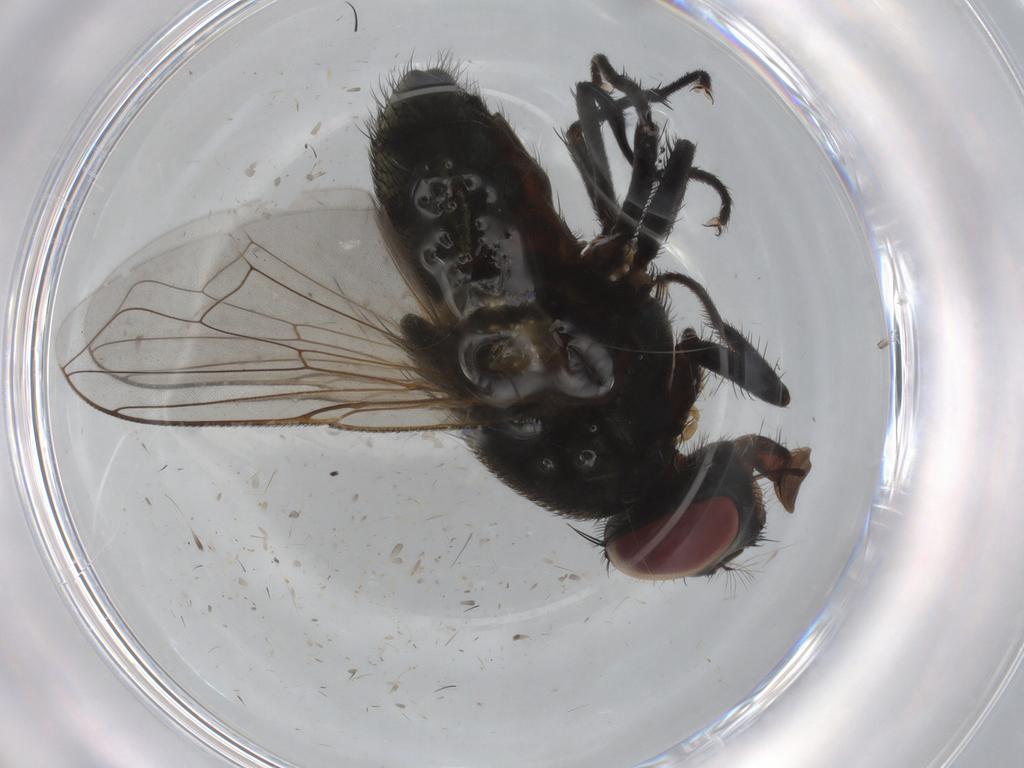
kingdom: Animalia
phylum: Arthropoda
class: Insecta
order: Diptera
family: Muscidae
